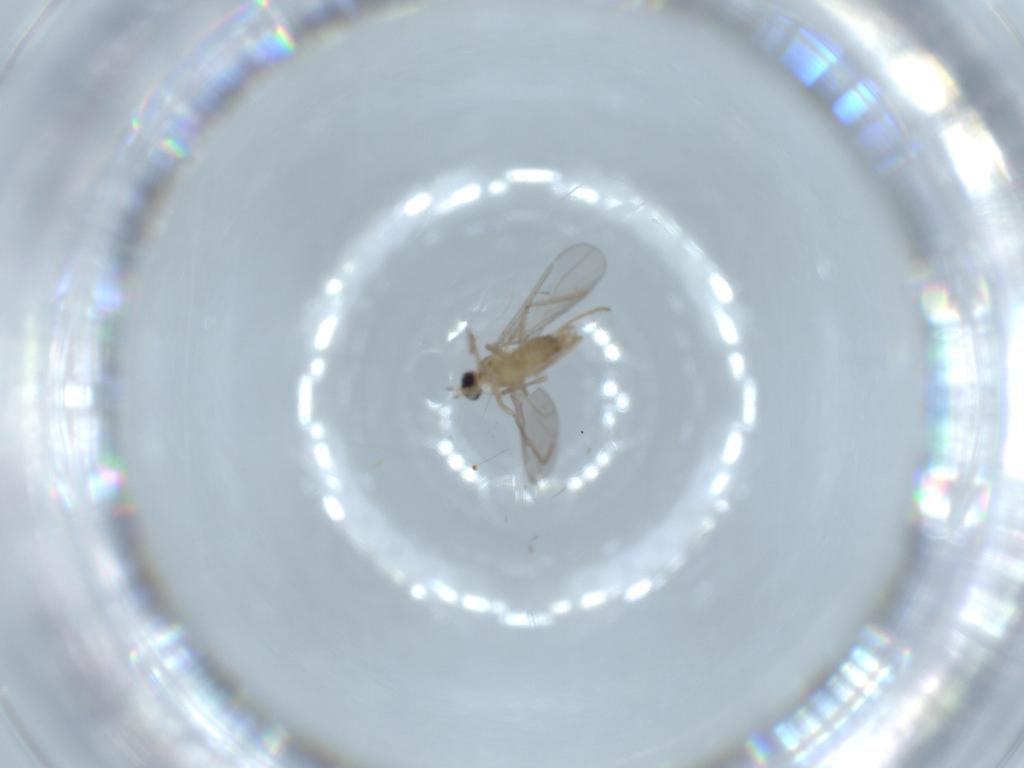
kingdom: Animalia
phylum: Arthropoda
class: Insecta
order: Diptera
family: Cecidomyiidae
